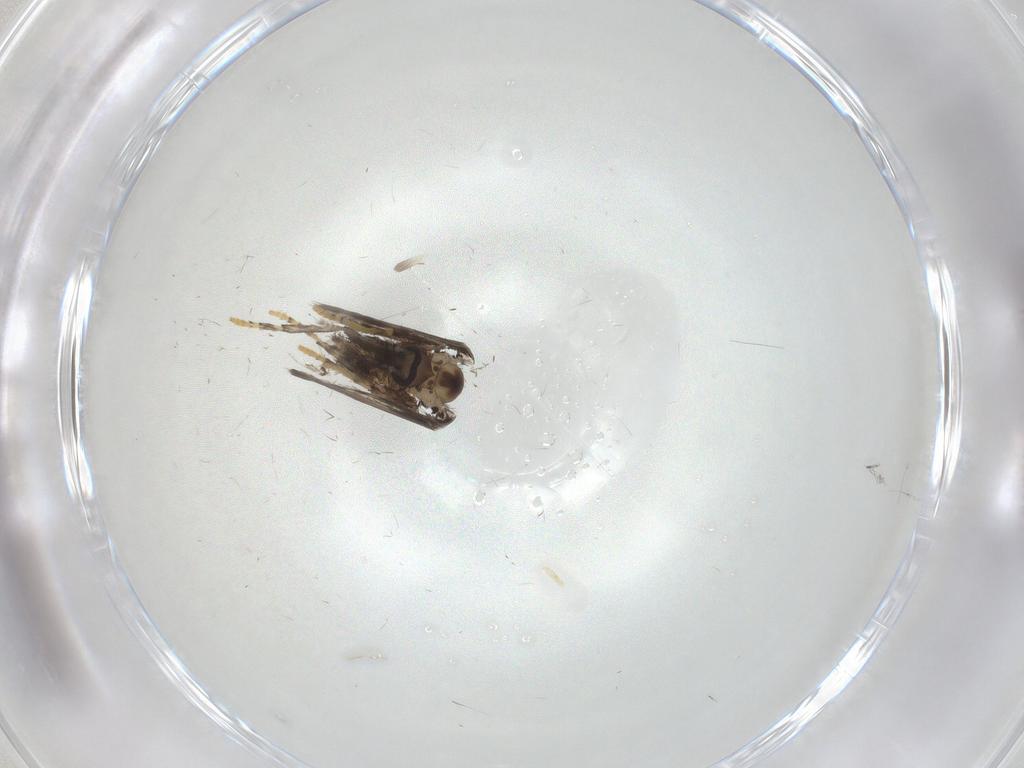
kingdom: Animalia
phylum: Arthropoda
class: Insecta
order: Diptera
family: Psychodidae
